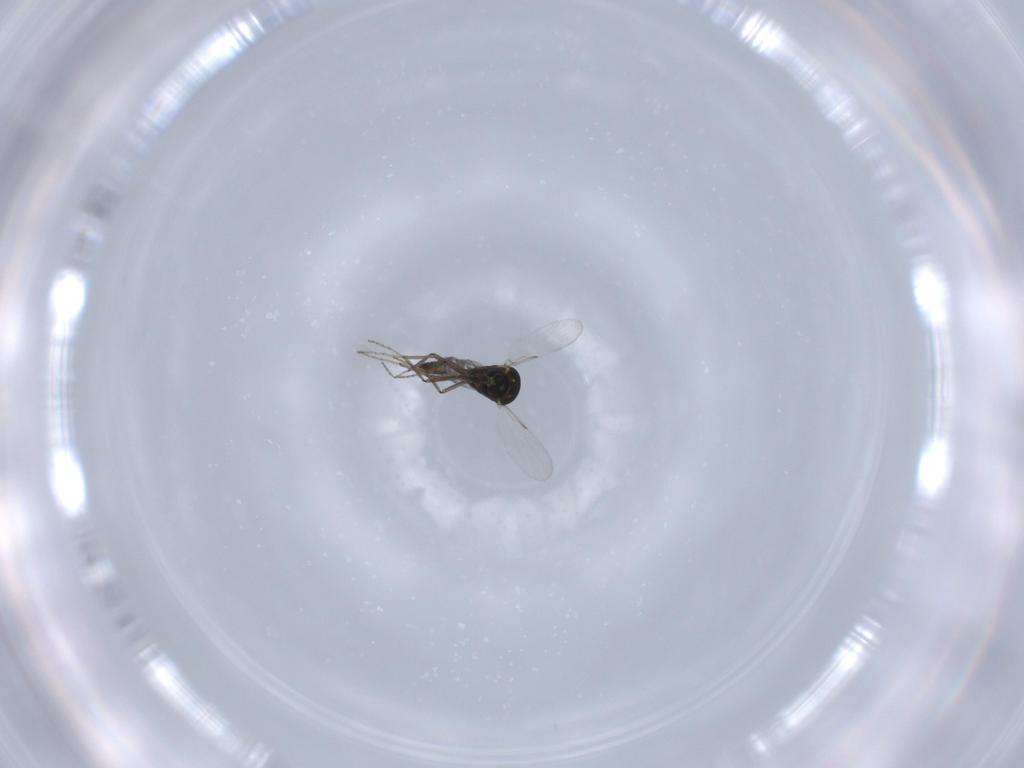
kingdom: Animalia
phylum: Arthropoda
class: Insecta
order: Diptera
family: Ceratopogonidae
